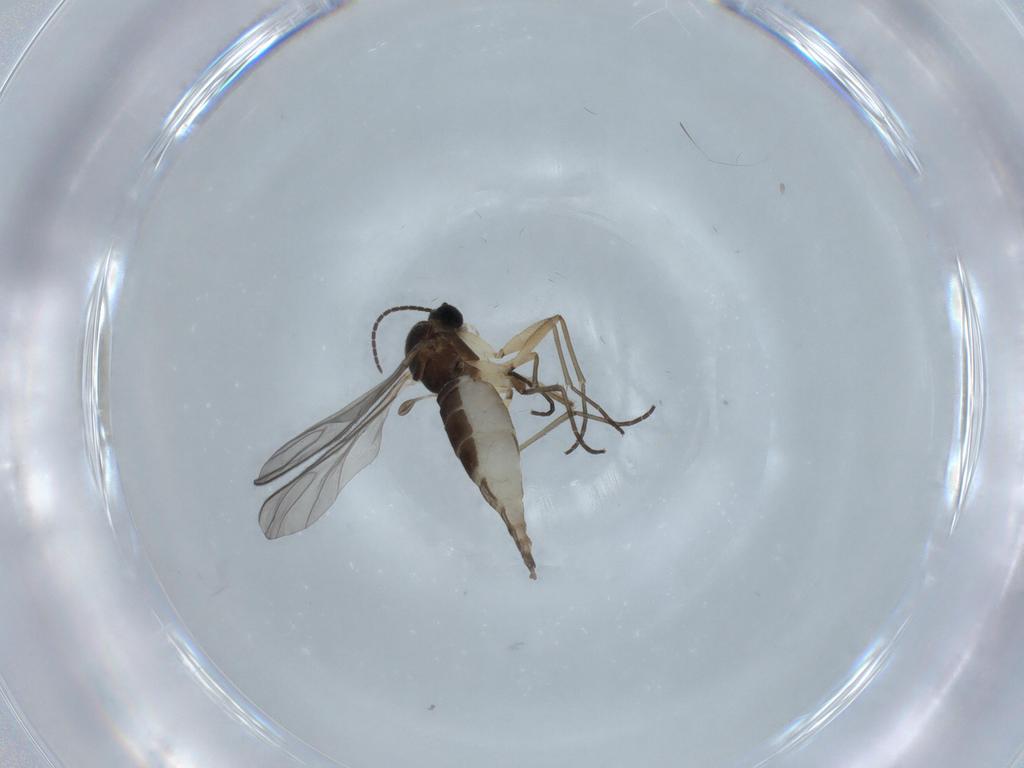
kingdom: Animalia
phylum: Arthropoda
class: Insecta
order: Diptera
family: Sciaridae
